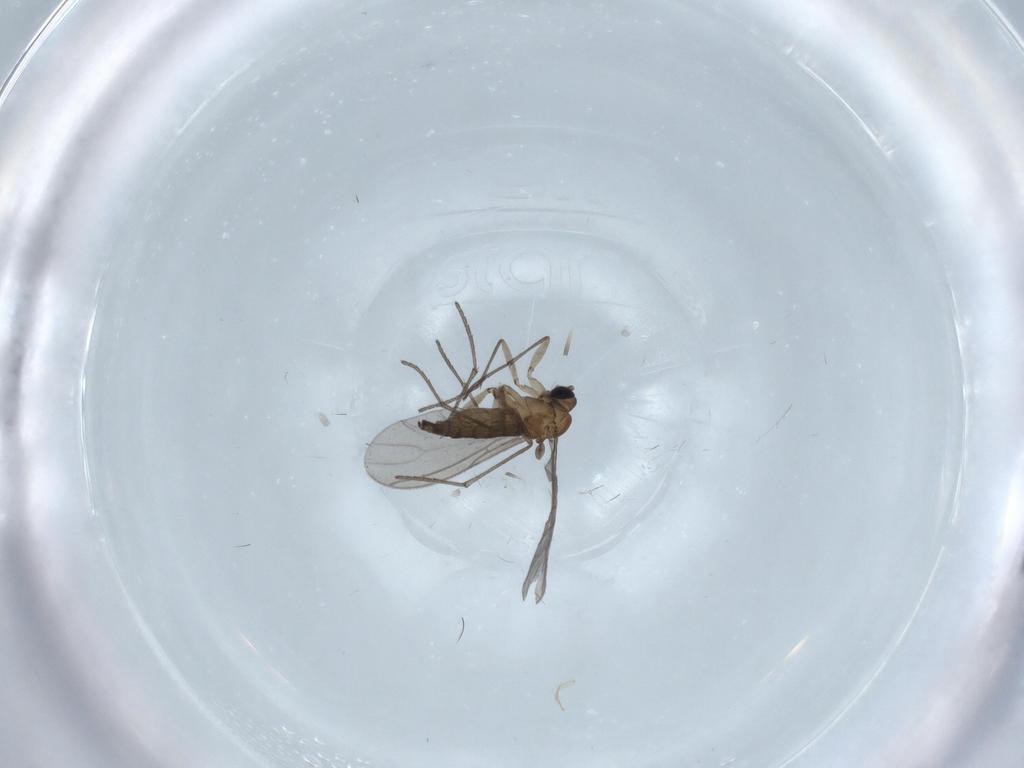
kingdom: Animalia
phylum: Arthropoda
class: Insecta
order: Diptera
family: Sciaridae
